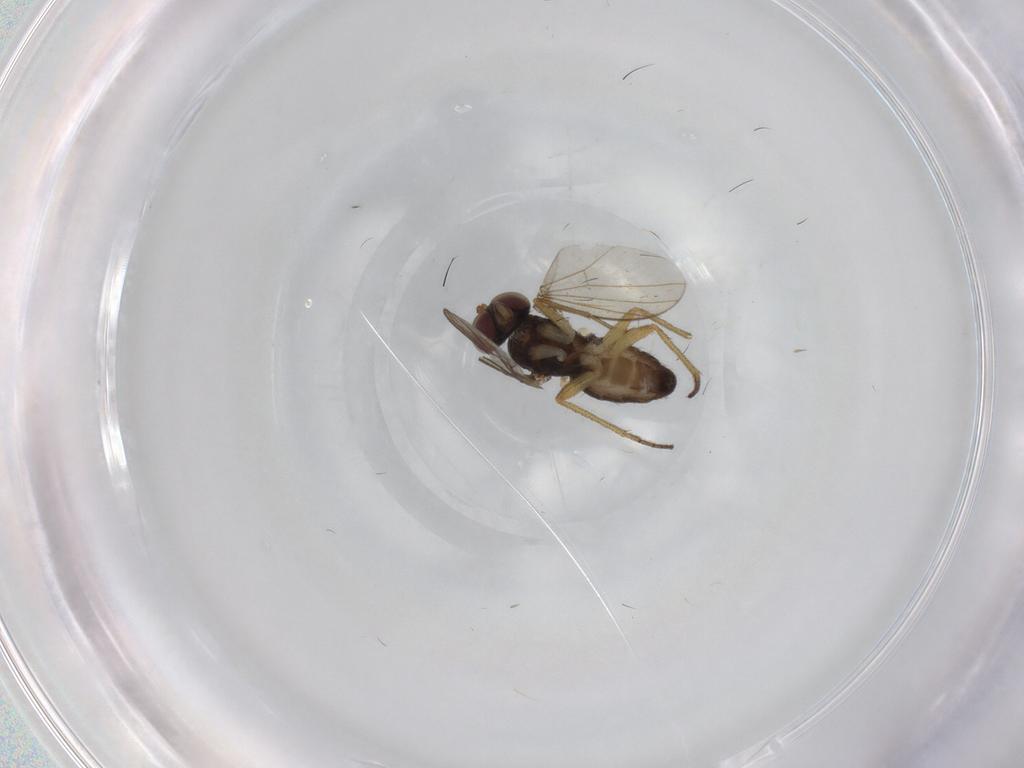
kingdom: Animalia
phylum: Arthropoda
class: Insecta
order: Diptera
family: Dolichopodidae
